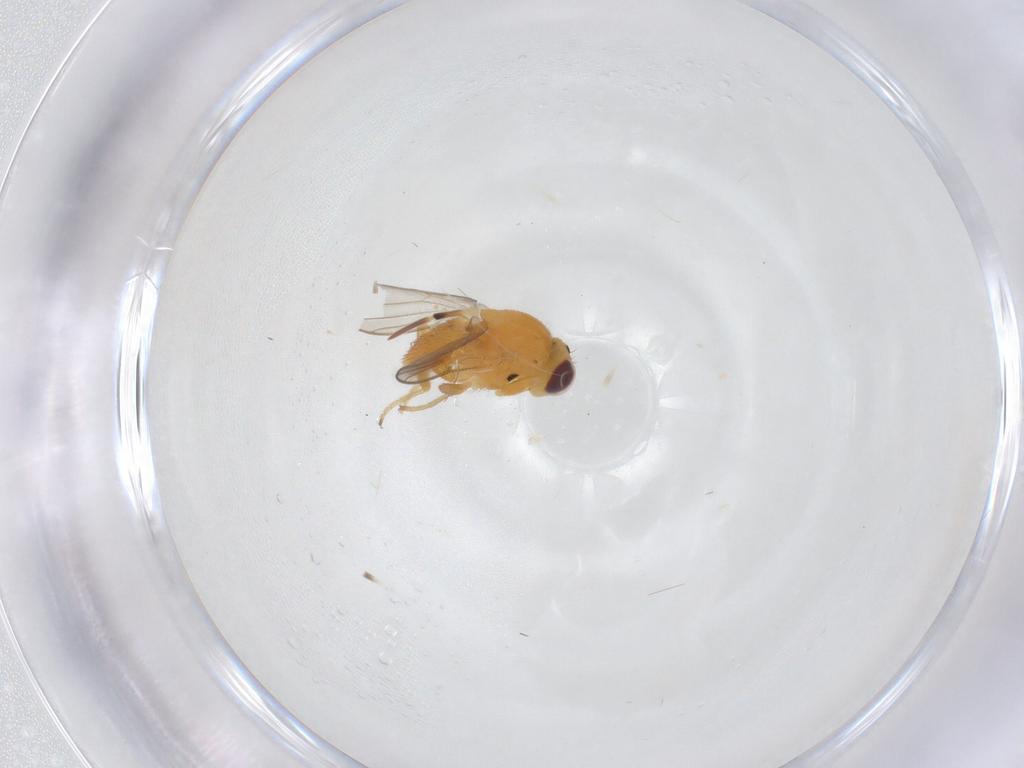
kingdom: Animalia
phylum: Arthropoda
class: Insecta
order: Diptera
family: Chloropidae
